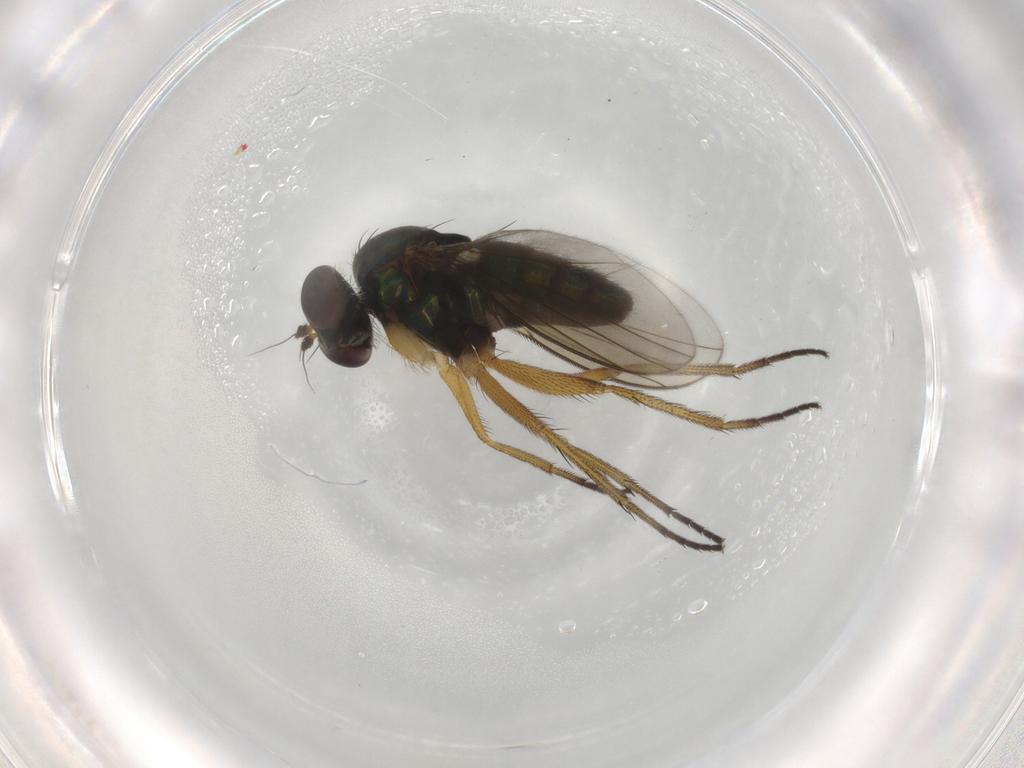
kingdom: Animalia
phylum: Arthropoda
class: Insecta
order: Diptera
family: Dolichopodidae
